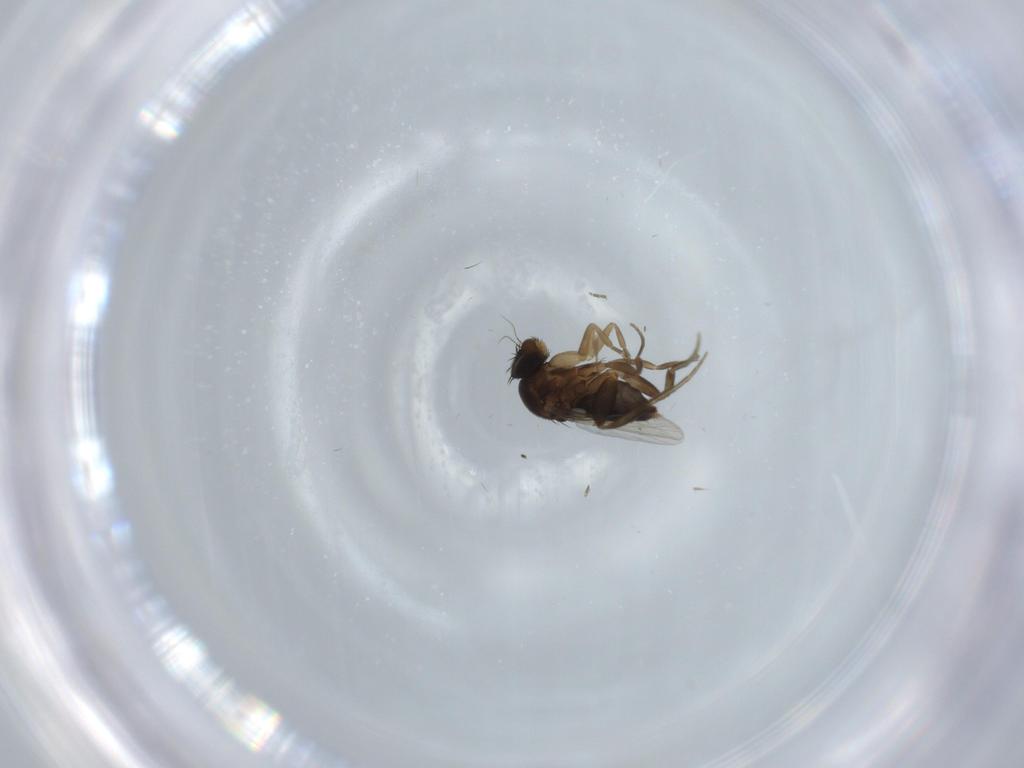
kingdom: Animalia
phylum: Arthropoda
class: Insecta
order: Diptera
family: Phoridae
